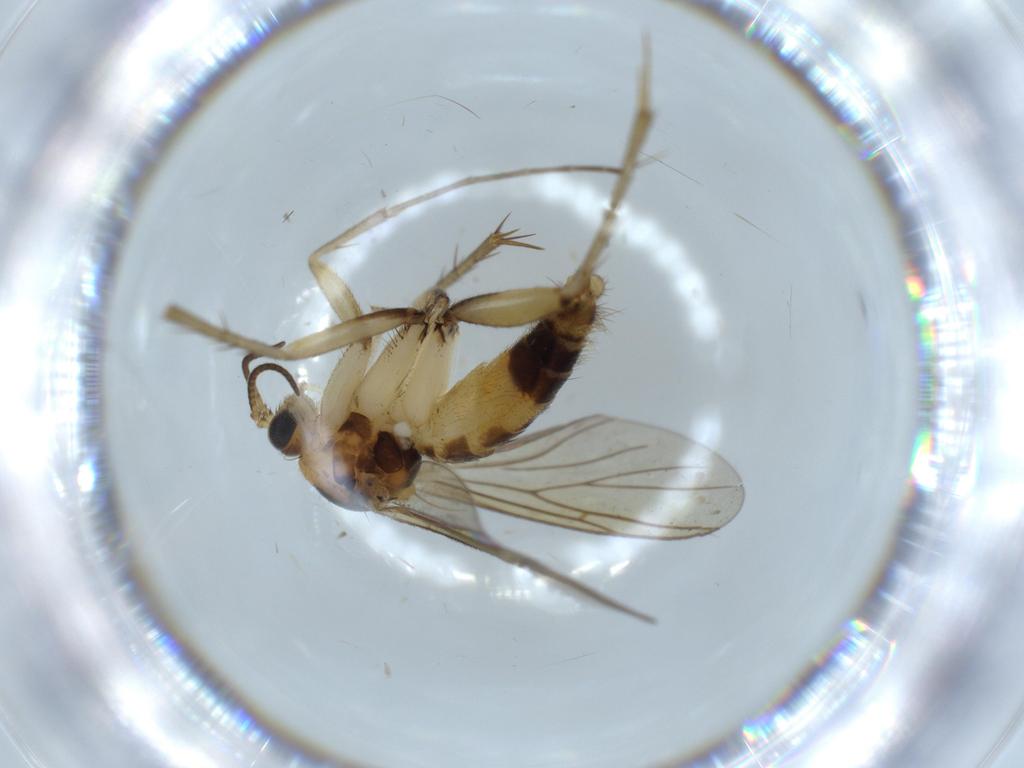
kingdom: Animalia
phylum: Arthropoda
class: Insecta
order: Diptera
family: Mycetophilidae
